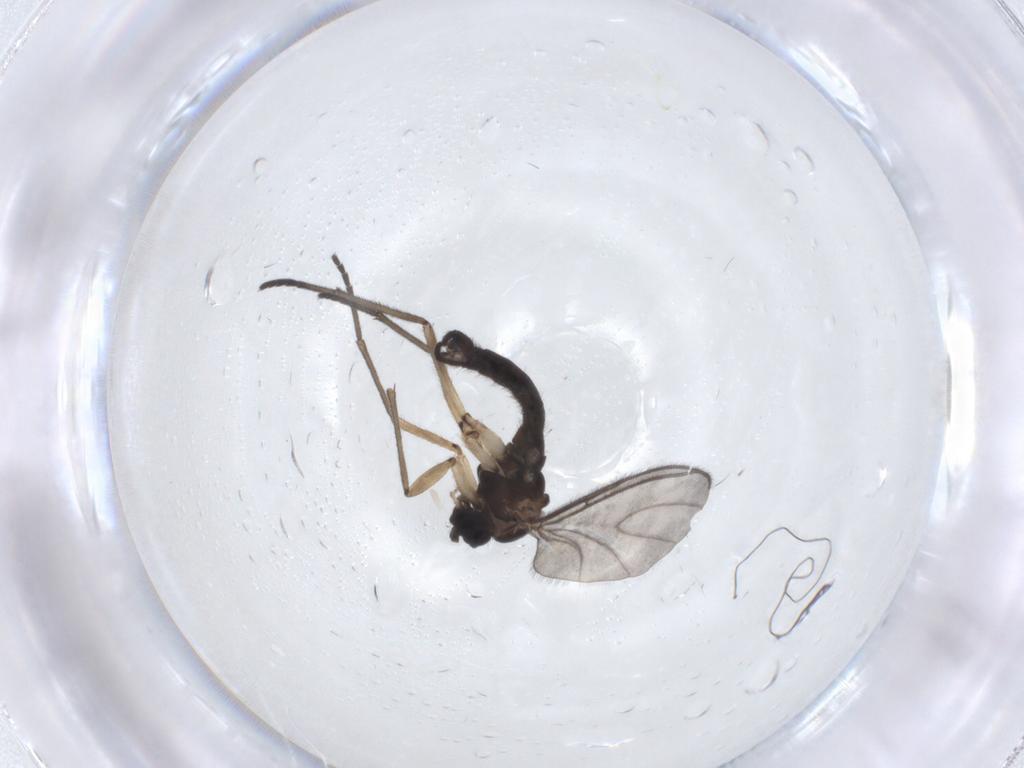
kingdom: Animalia
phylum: Arthropoda
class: Insecta
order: Diptera
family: Sciaridae
